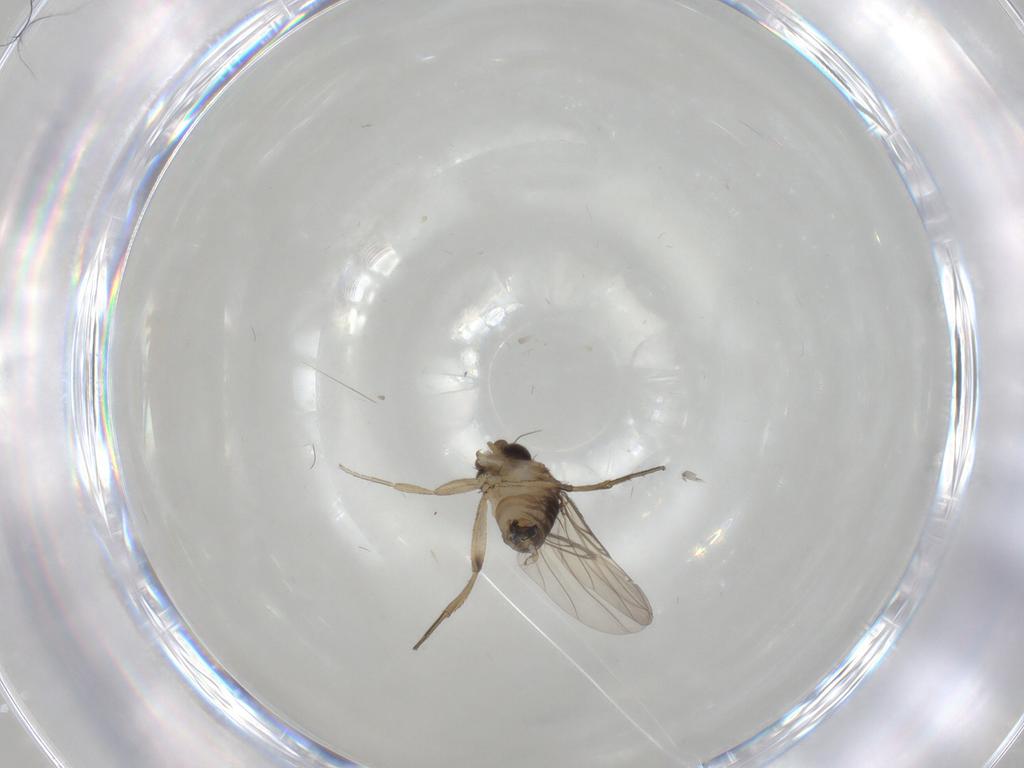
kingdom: Animalia
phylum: Arthropoda
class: Insecta
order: Diptera
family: Phoridae
